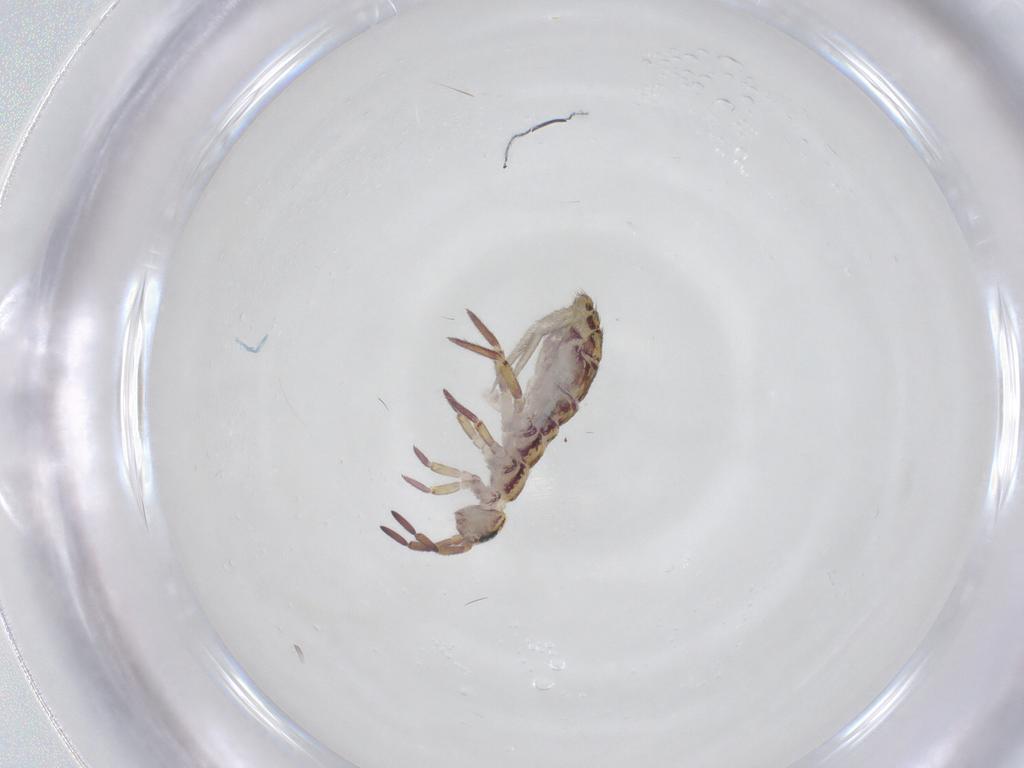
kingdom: Animalia
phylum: Arthropoda
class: Collembola
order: Entomobryomorpha
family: Isotomidae
